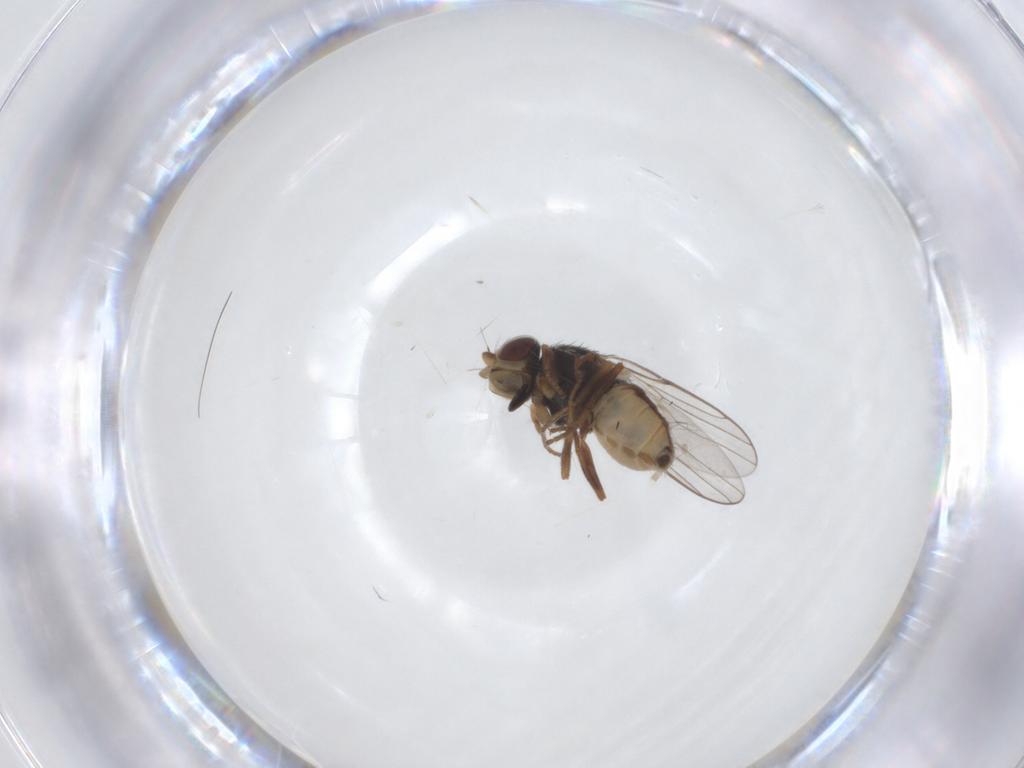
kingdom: Animalia
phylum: Arthropoda
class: Insecta
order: Diptera
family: Chloropidae
